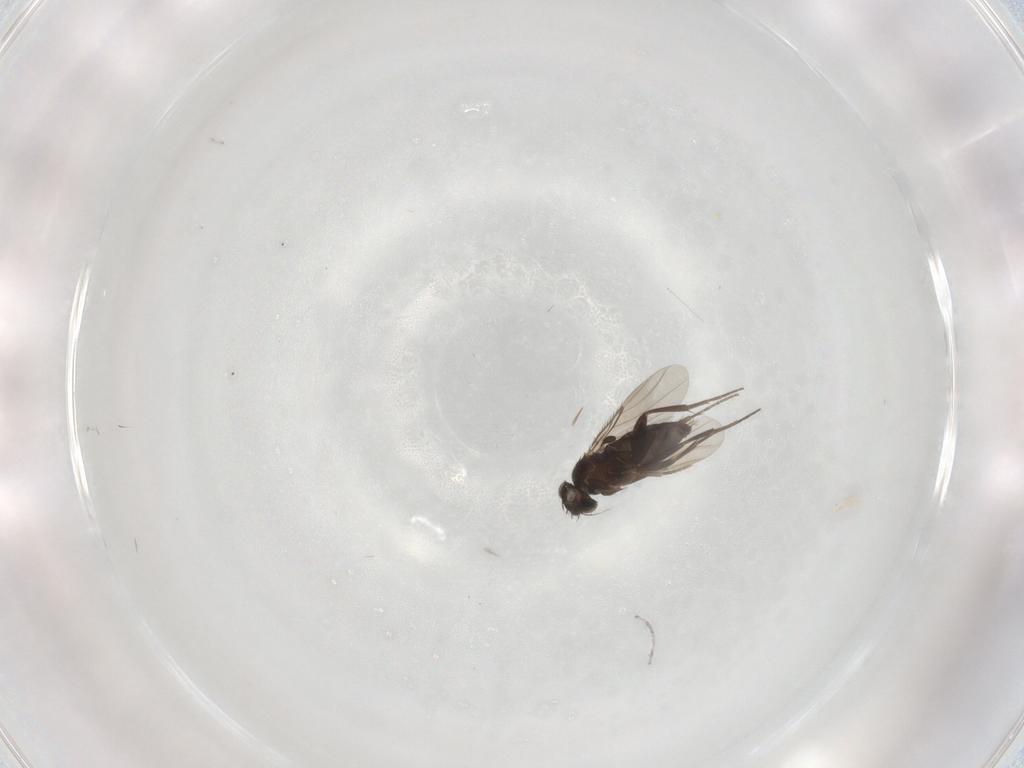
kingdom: Animalia
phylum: Arthropoda
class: Insecta
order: Diptera
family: Phoridae
